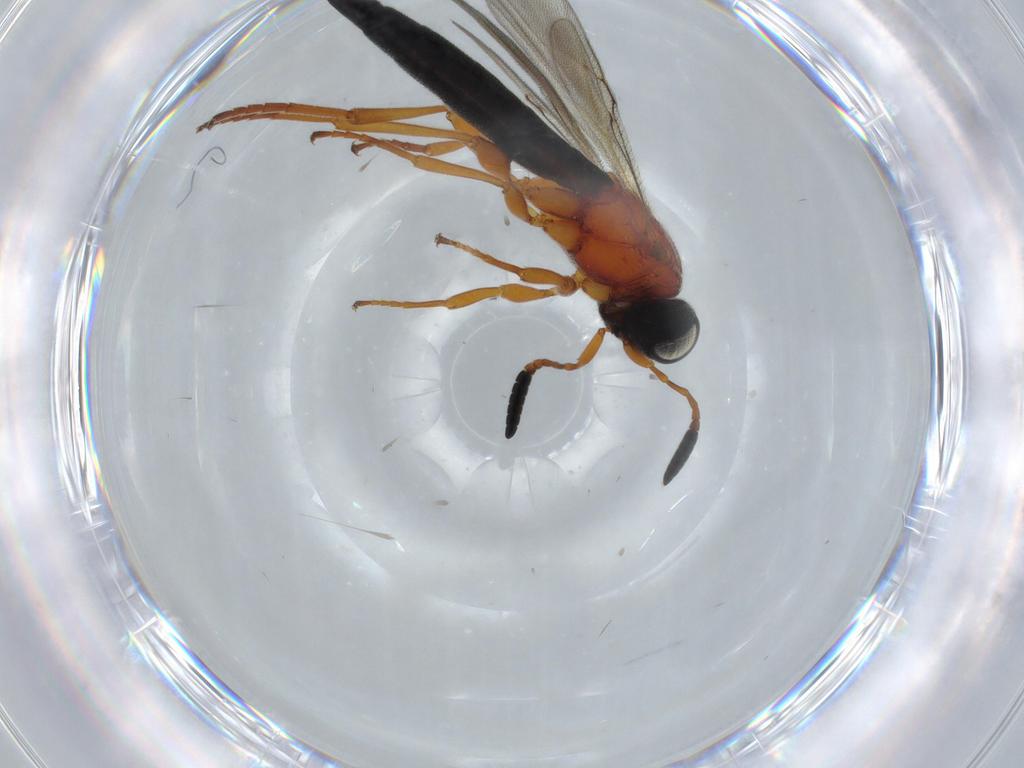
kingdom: Animalia
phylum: Arthropoda
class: Insecta
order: Hymenoptera
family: Scelionidae
